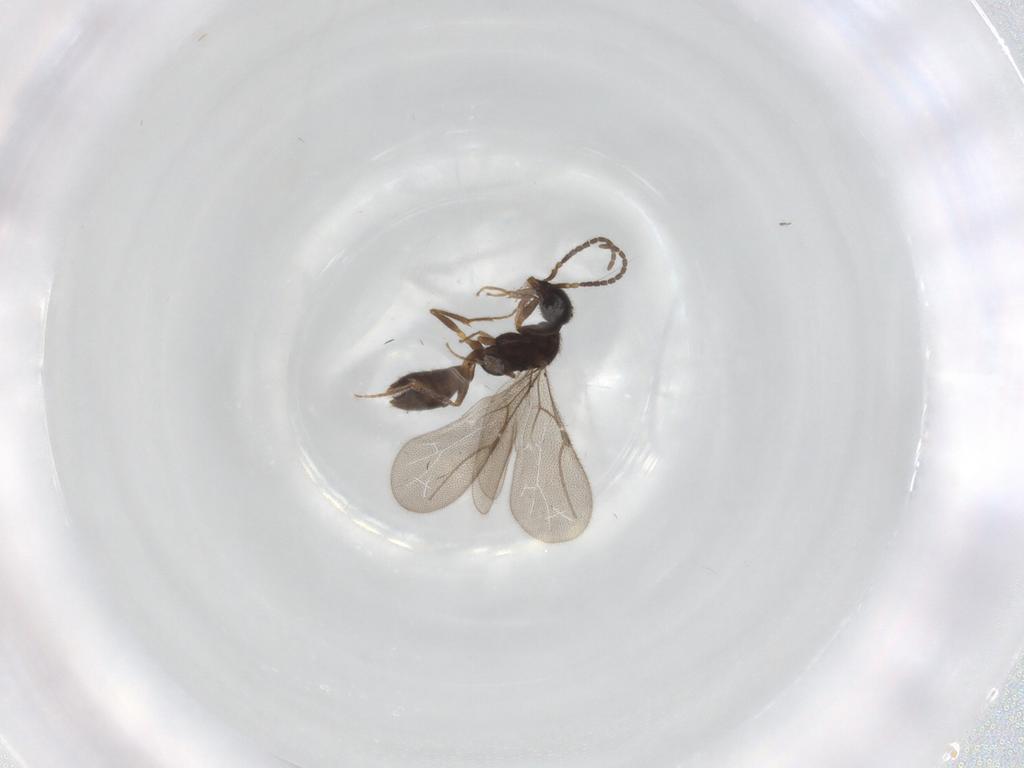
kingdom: Animalia
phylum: Arthropoda
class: Insecta
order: Hymenoptera
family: Bethylidae
